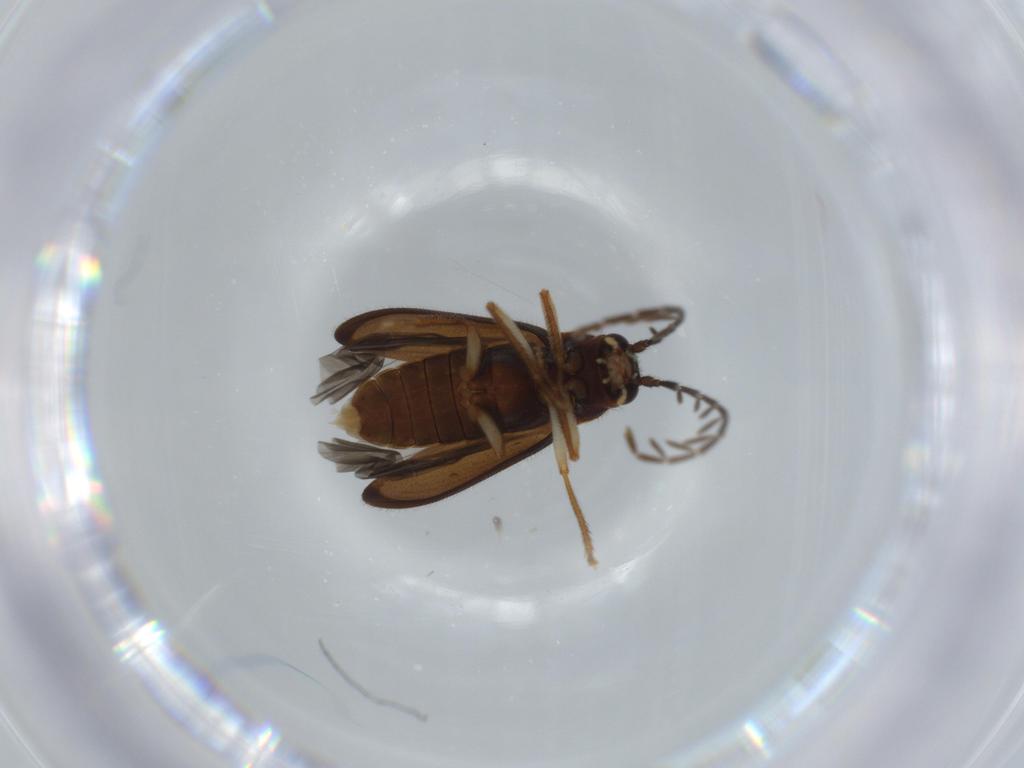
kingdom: Animalia
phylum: Arthropoda
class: Insecta
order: Coleoptera
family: Ptilodactylidae
